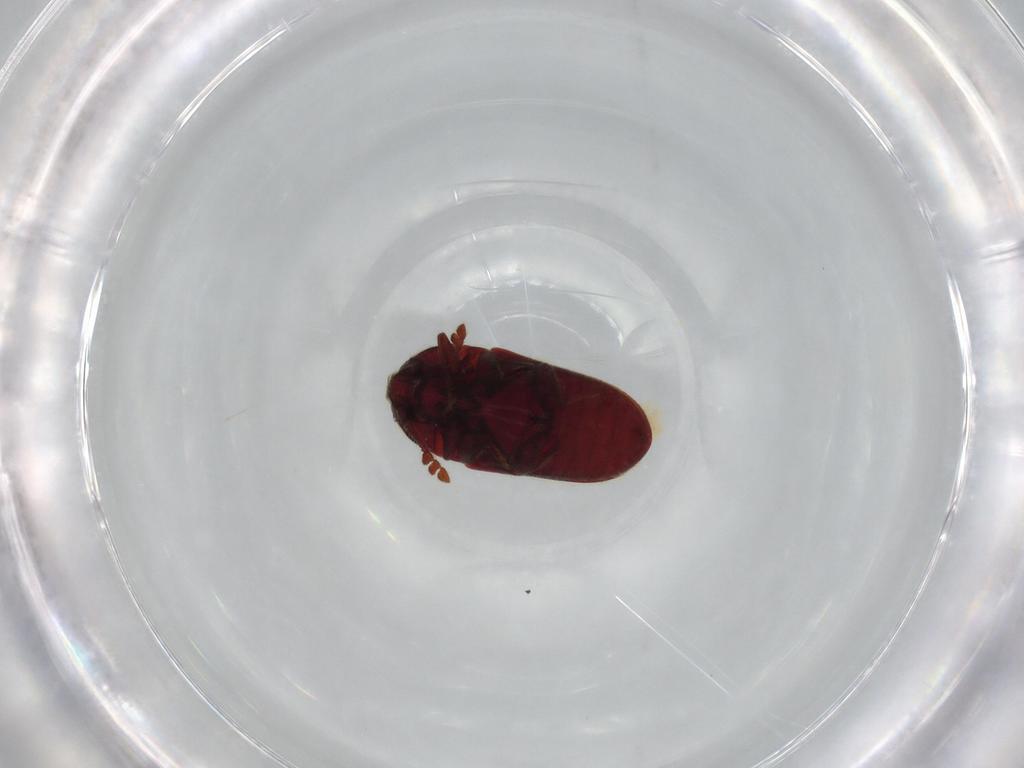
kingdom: Animalia
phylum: Arthropoda
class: Insecta
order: Coleoptera
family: Throscidae
